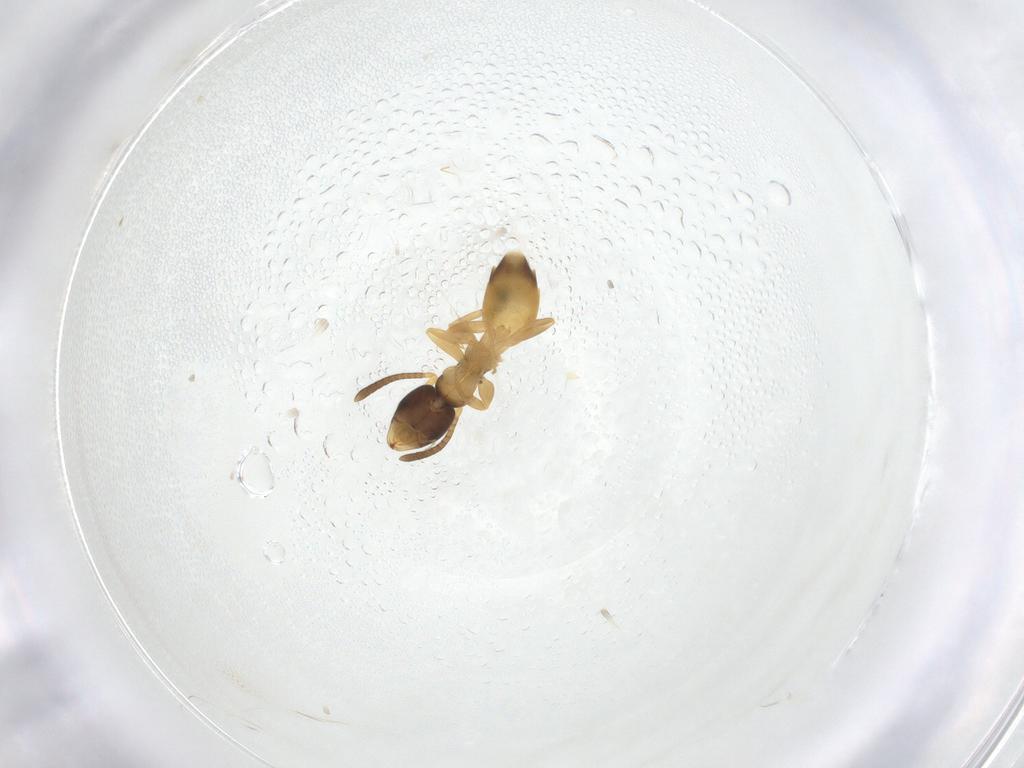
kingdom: Animalia
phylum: Arthropoda
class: Insecta
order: Hymenoptera
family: Formicidae
